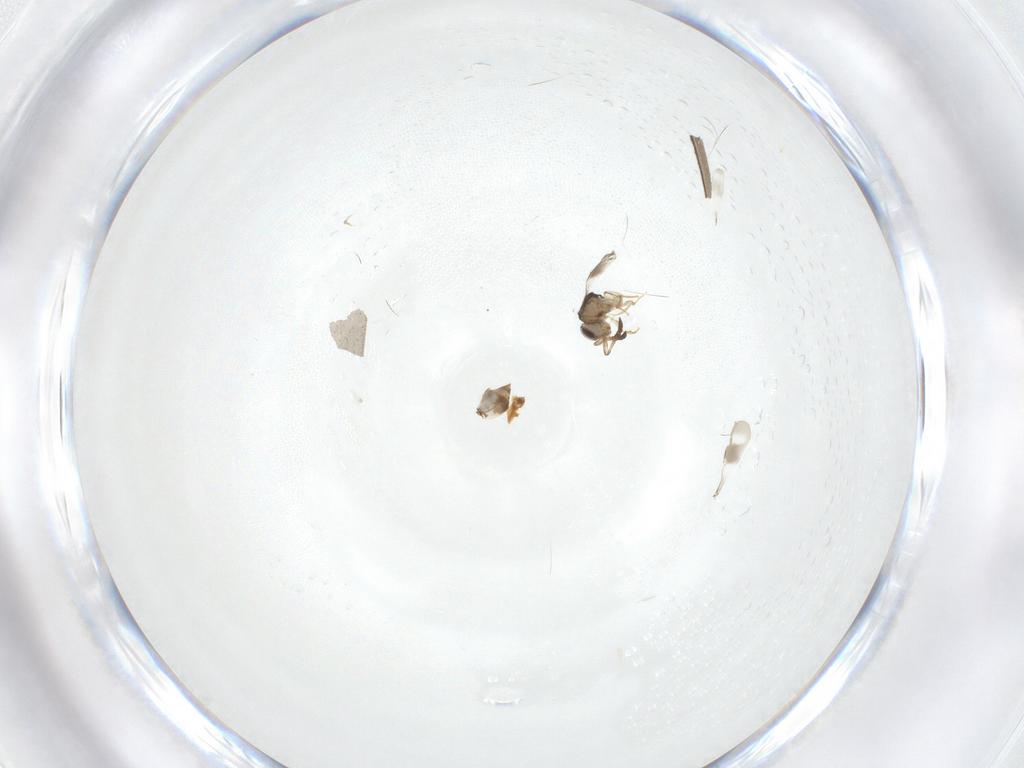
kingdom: Animalia
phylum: Arthropoda
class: Insecta
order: Hymenoptera
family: Ceraphronidae
